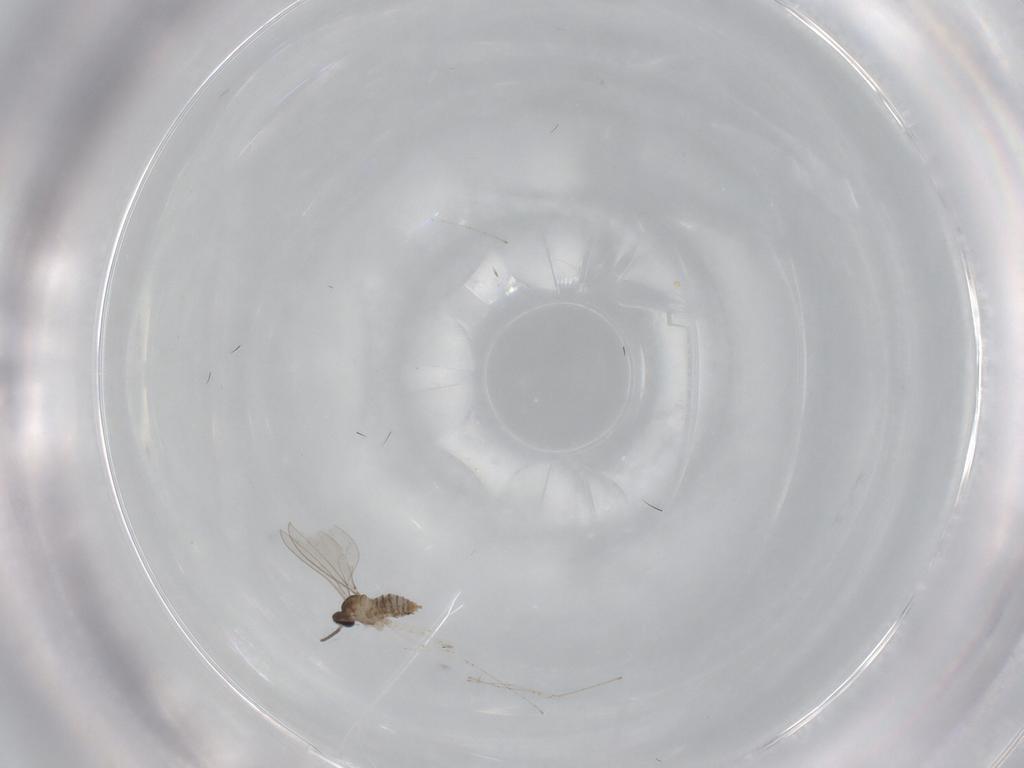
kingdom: Animalia
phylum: Arthropoda
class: Insecta
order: Diptera
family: Cecidomyiidae
